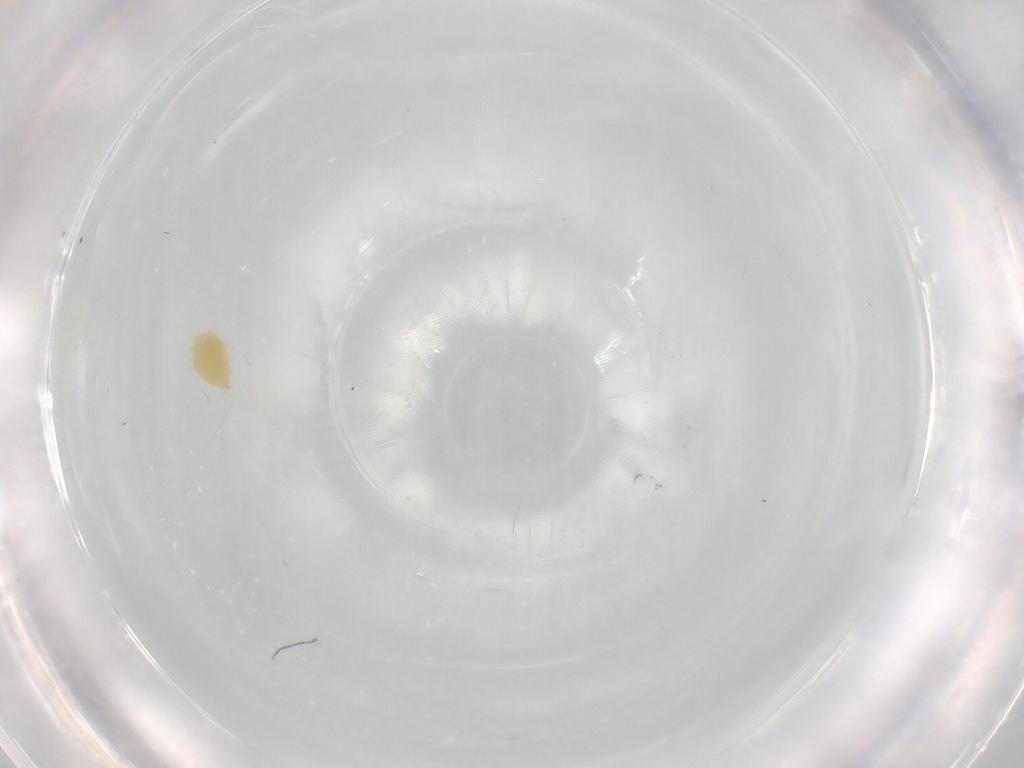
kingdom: Animalia
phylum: Arthropoda
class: Arachnida
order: Trombidiformes
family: Tetranychidae
